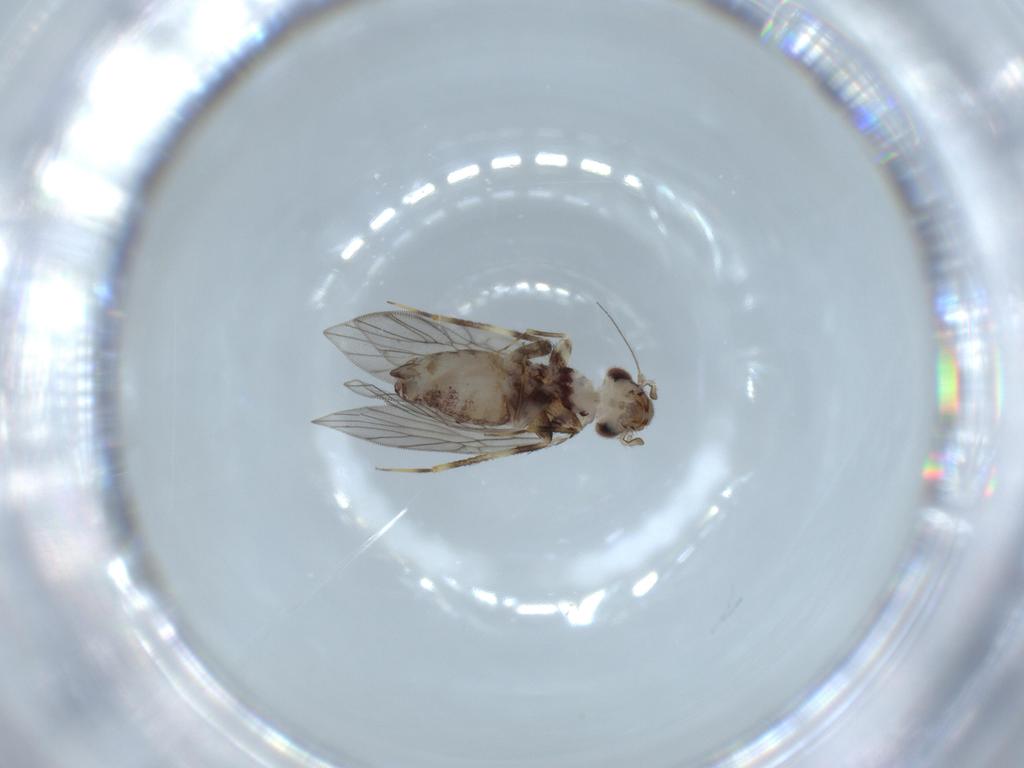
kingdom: Animalia
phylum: Arthropoda
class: Insecta
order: Psocodea
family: Lepidopsocidae
